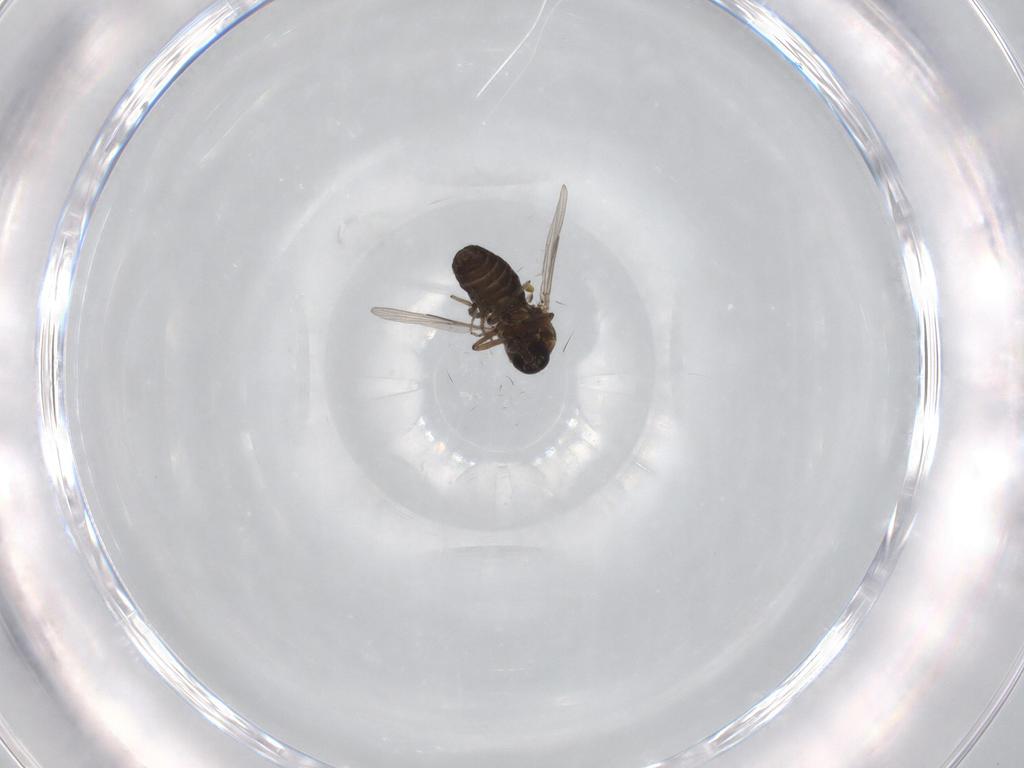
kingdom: Animalia
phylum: Arthropoda
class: Insecta
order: Diptera
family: Ceratopogonidae
